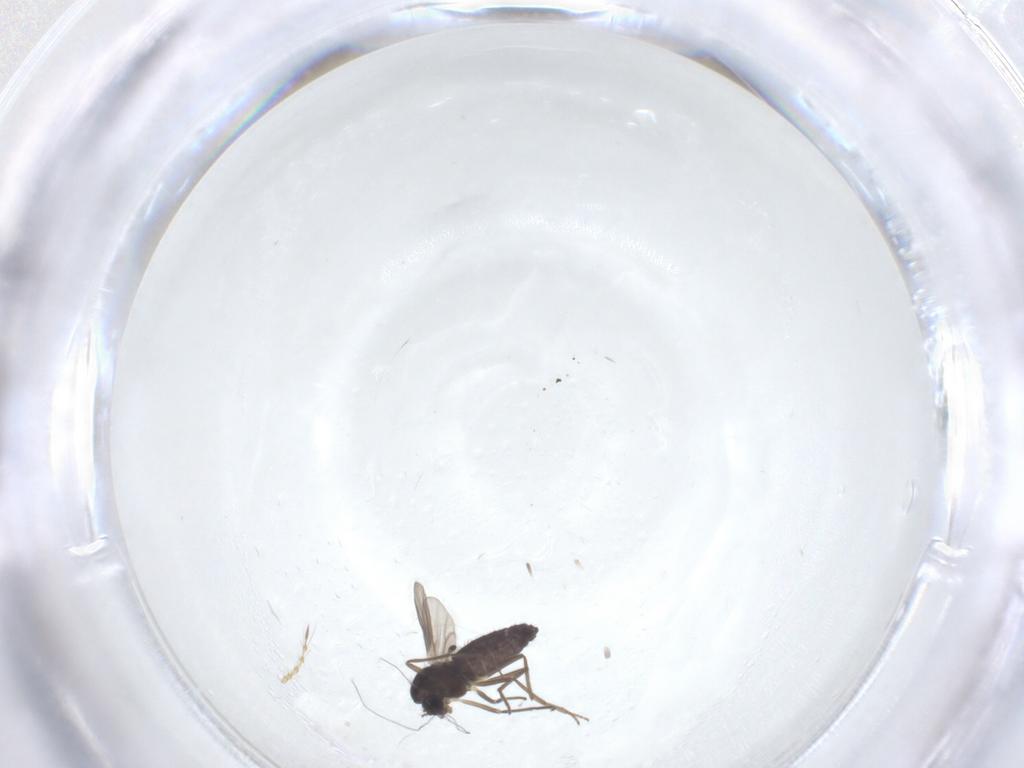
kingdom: Animalia
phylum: Arthropoda
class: Insecta
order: Diptera
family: Chironomidae
